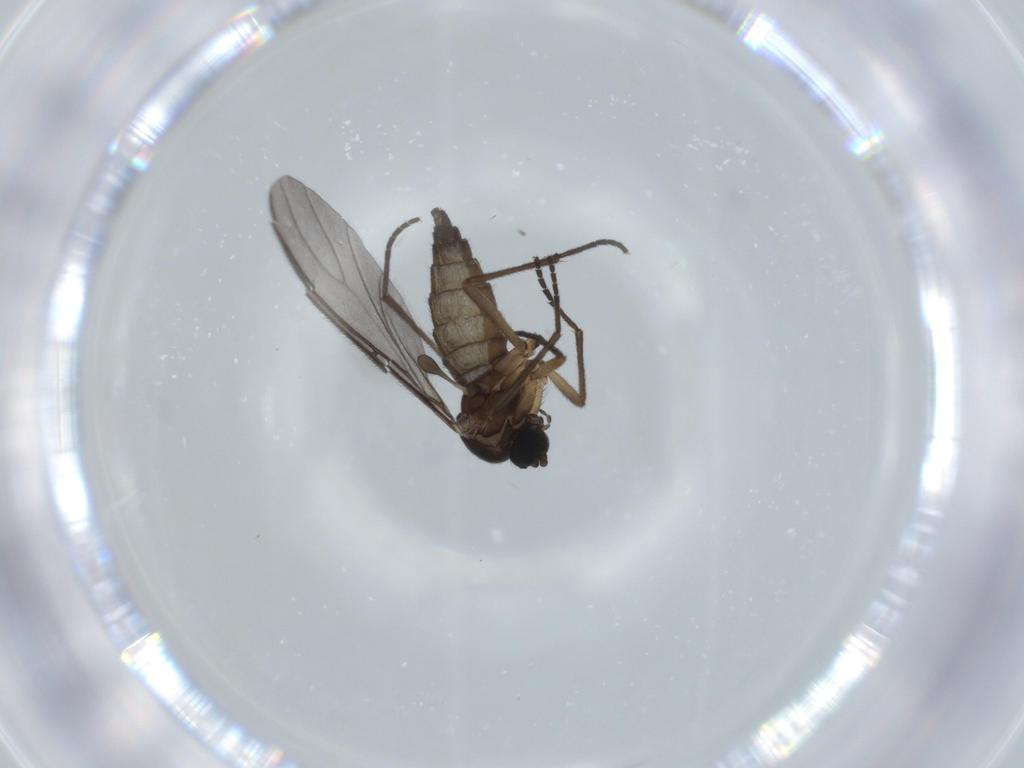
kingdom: Animalia
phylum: Arthropoda
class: Insecta
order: Diptera
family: Sciaridae
